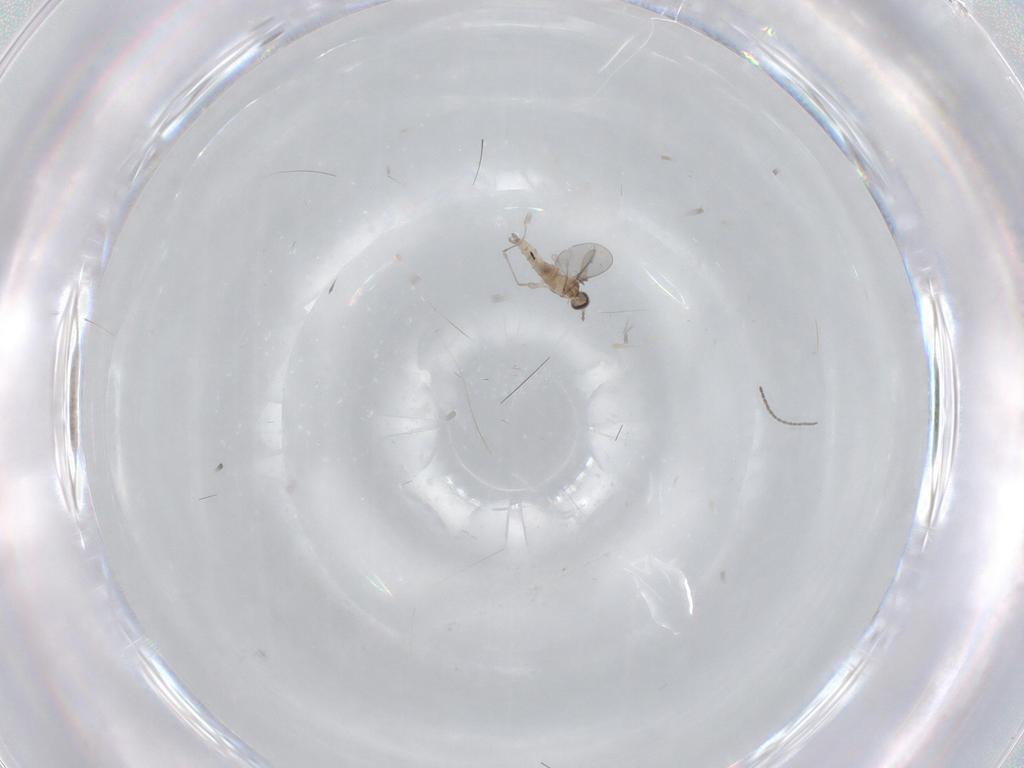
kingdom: Animalia
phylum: Arthropoda
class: Insecta
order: Diptera
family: Sciaridae
